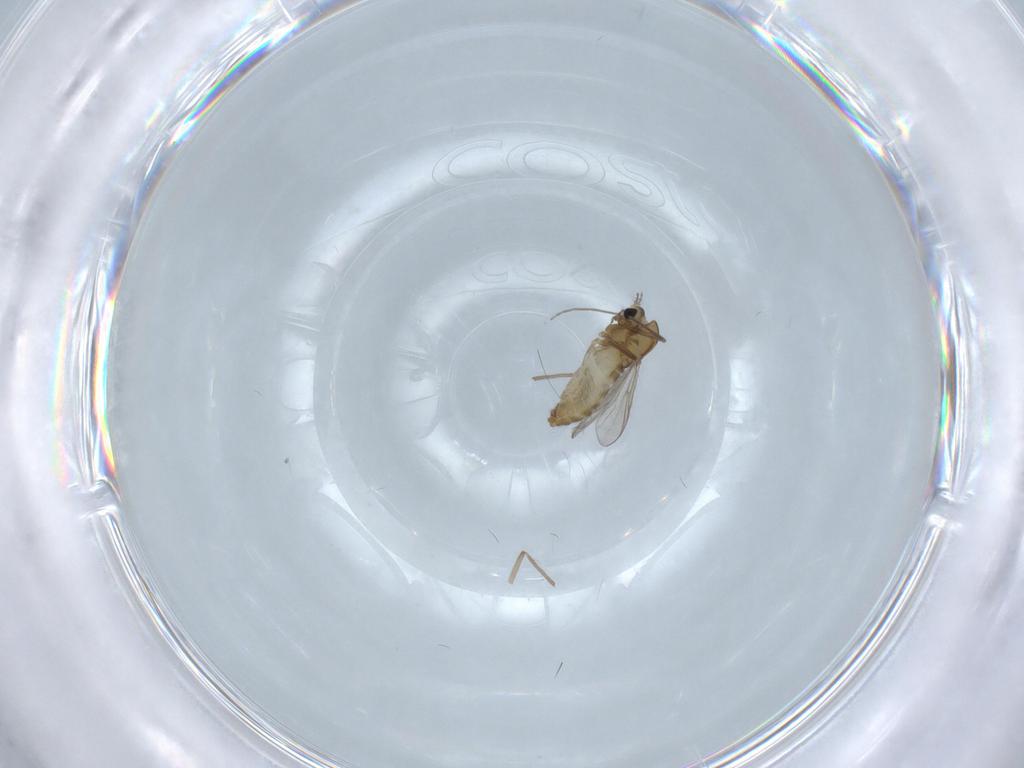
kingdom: Animalia
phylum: Arthropoda
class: Insecta
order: Diptera
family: Chironomidae
